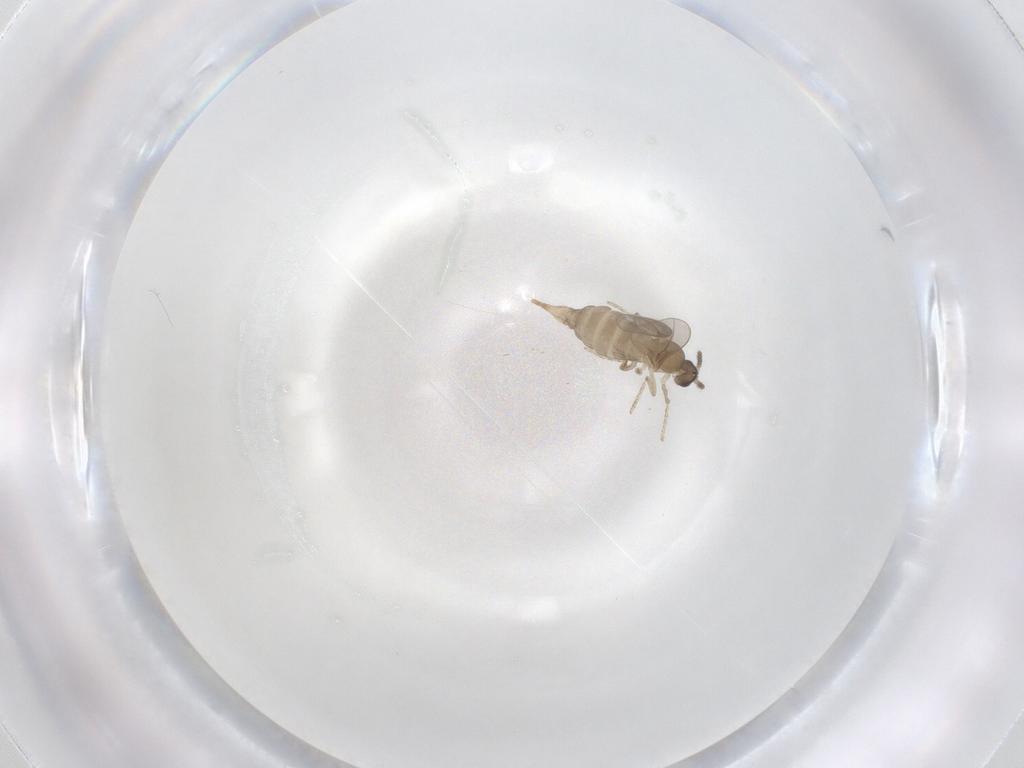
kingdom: Animalia
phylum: Arthropoda
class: Insecta
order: Diptera
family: Cecidomyiidae
